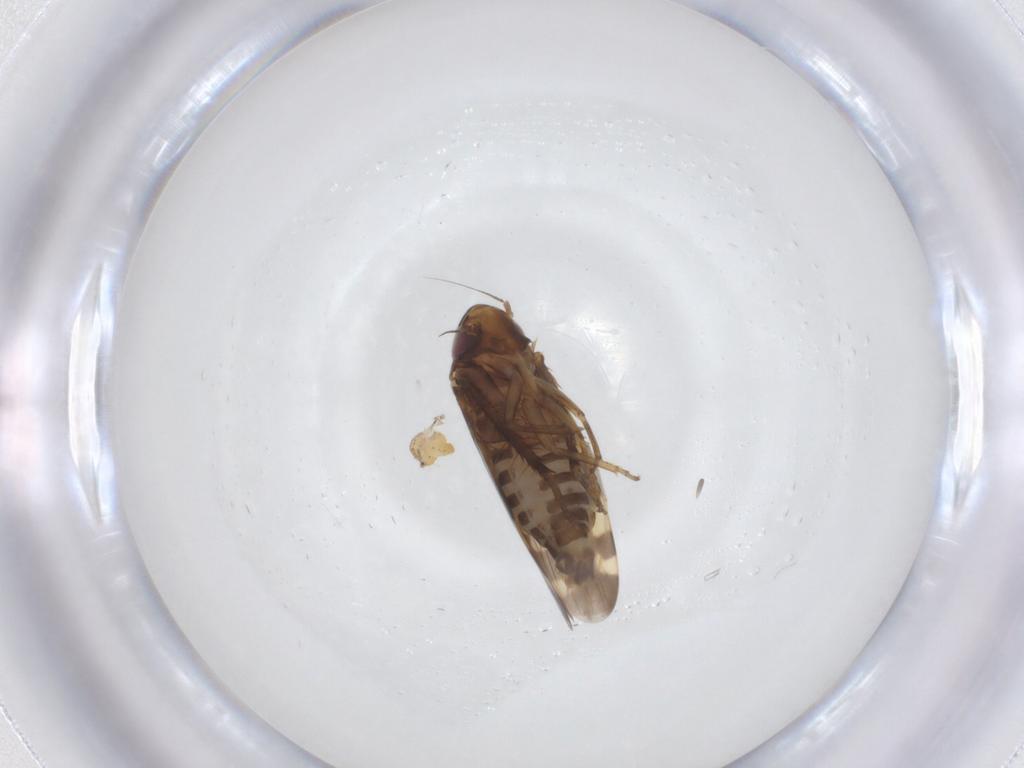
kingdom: Animalia
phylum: Arthropoda
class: Insecta
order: Hemiptera
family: Cicadellidae
